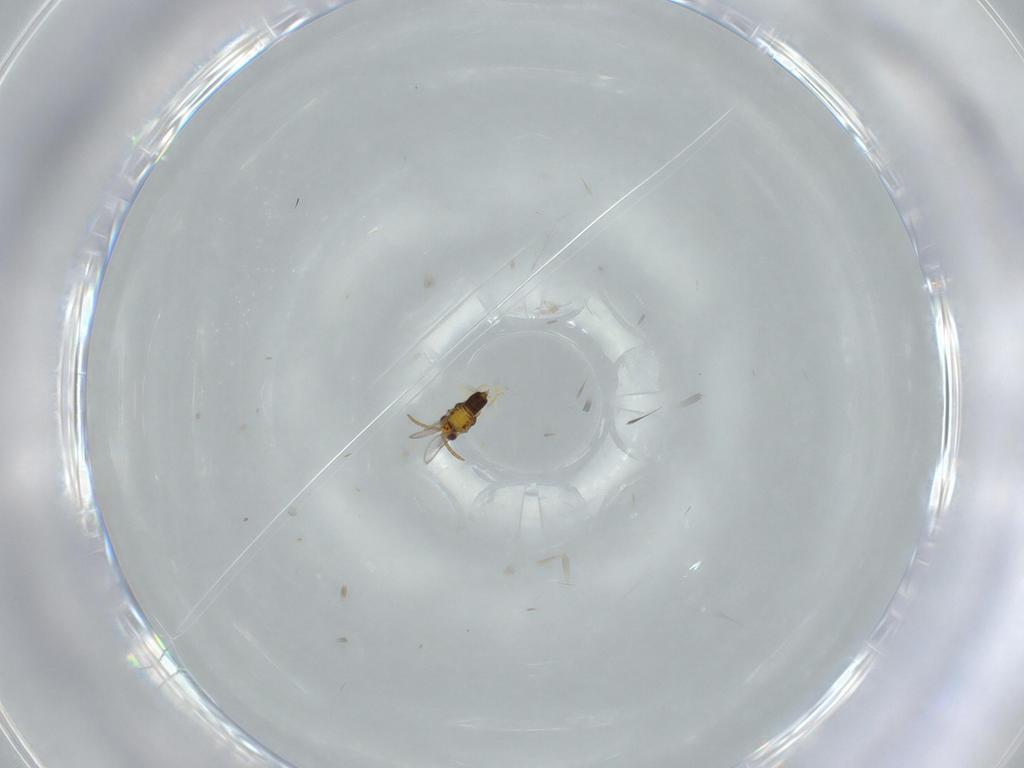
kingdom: Animalia
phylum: Arthropoda
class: Insecta
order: Hymenoptera
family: Aphelinidae
